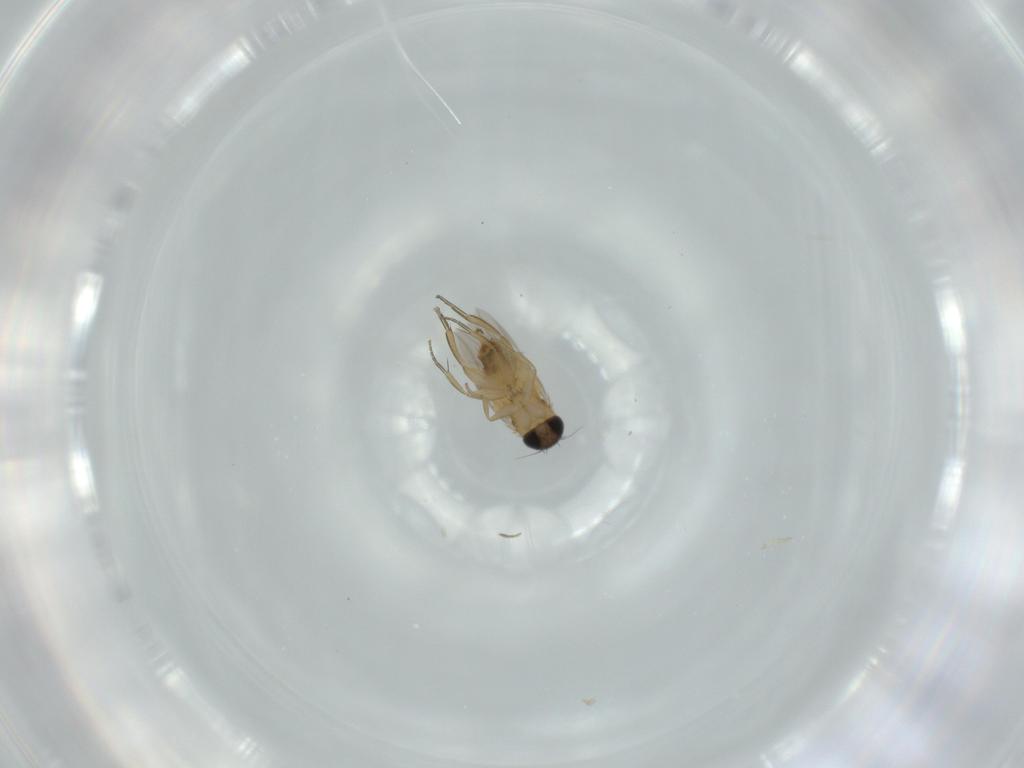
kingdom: Animalia
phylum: Arthropoda
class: Insecta
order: Diptera
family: Phoridae
